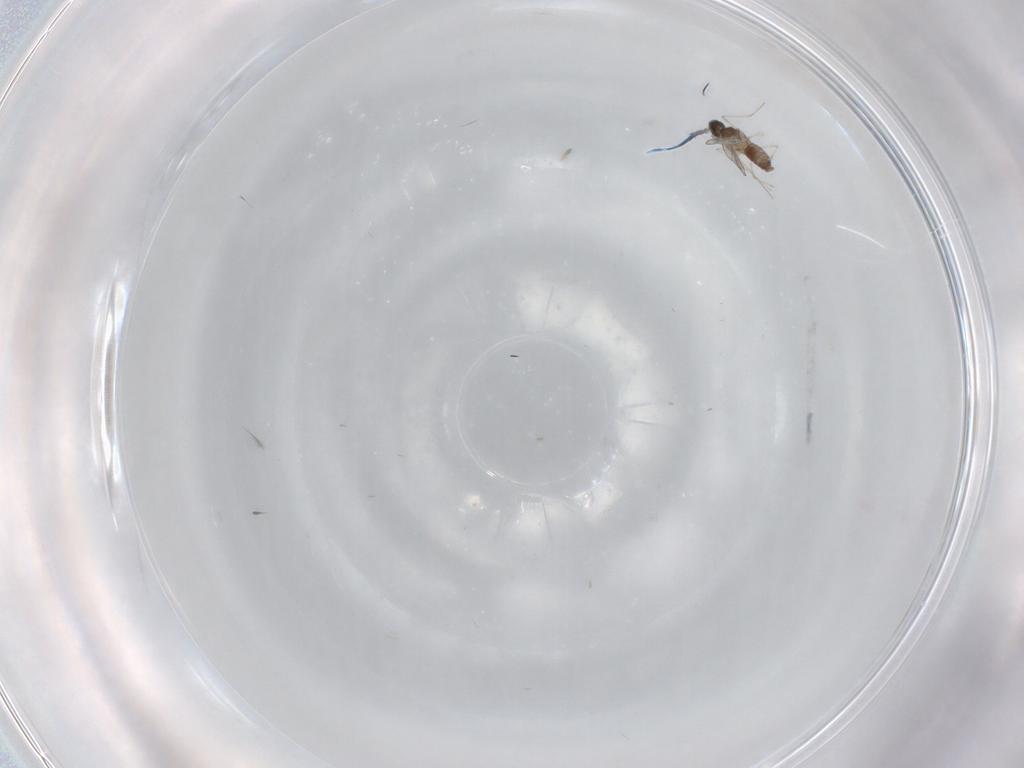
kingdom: Animalia
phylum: Arthropoda
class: Insecta
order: Diptera
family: Cecidomyiidae
